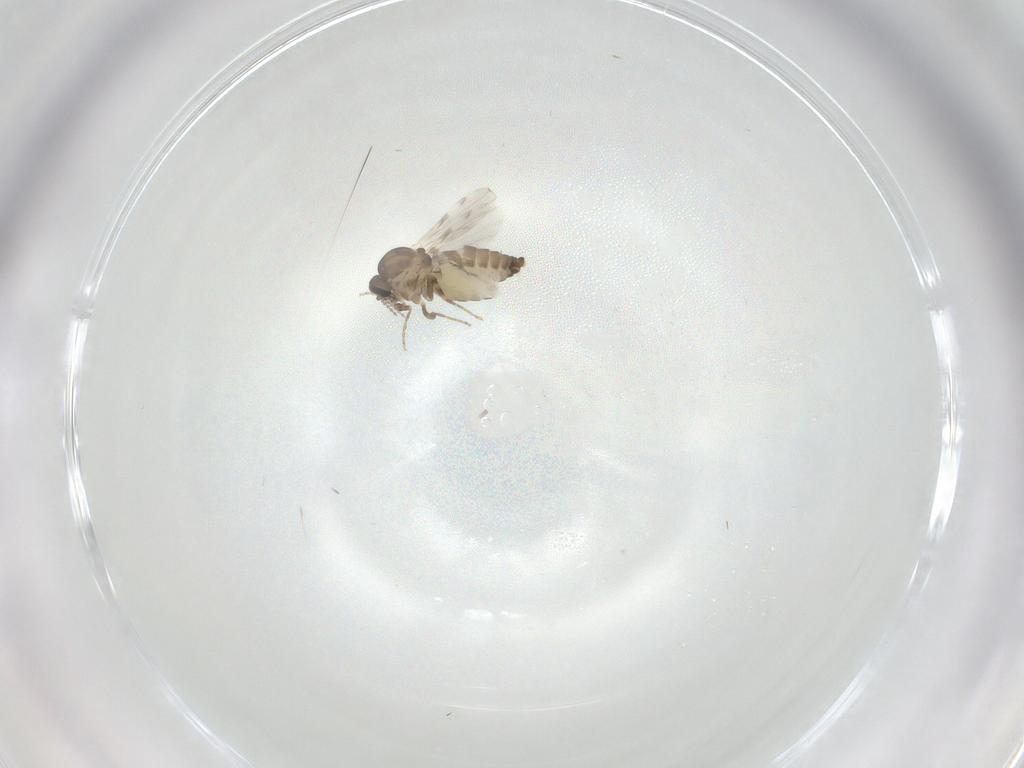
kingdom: Animalia
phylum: Arthropoda
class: Insecta
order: Diptera
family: Ceratopogonidae
